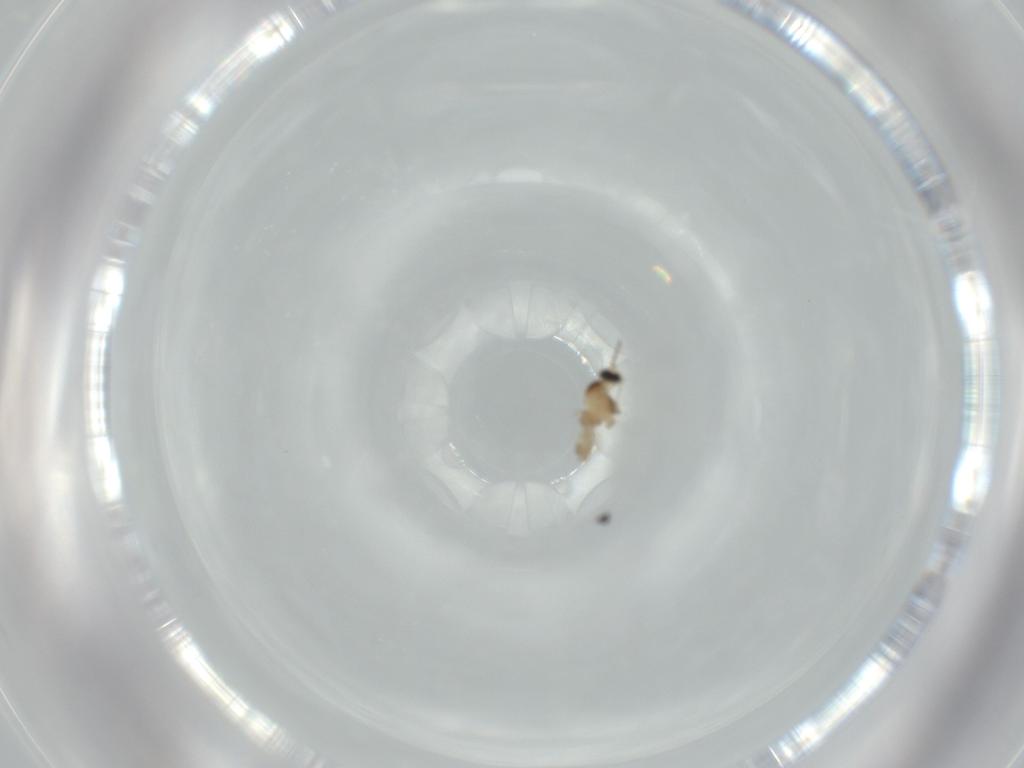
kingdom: Animalia
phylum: Arthropoda
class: Insecta
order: Diptera
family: Cecidomyiidae
